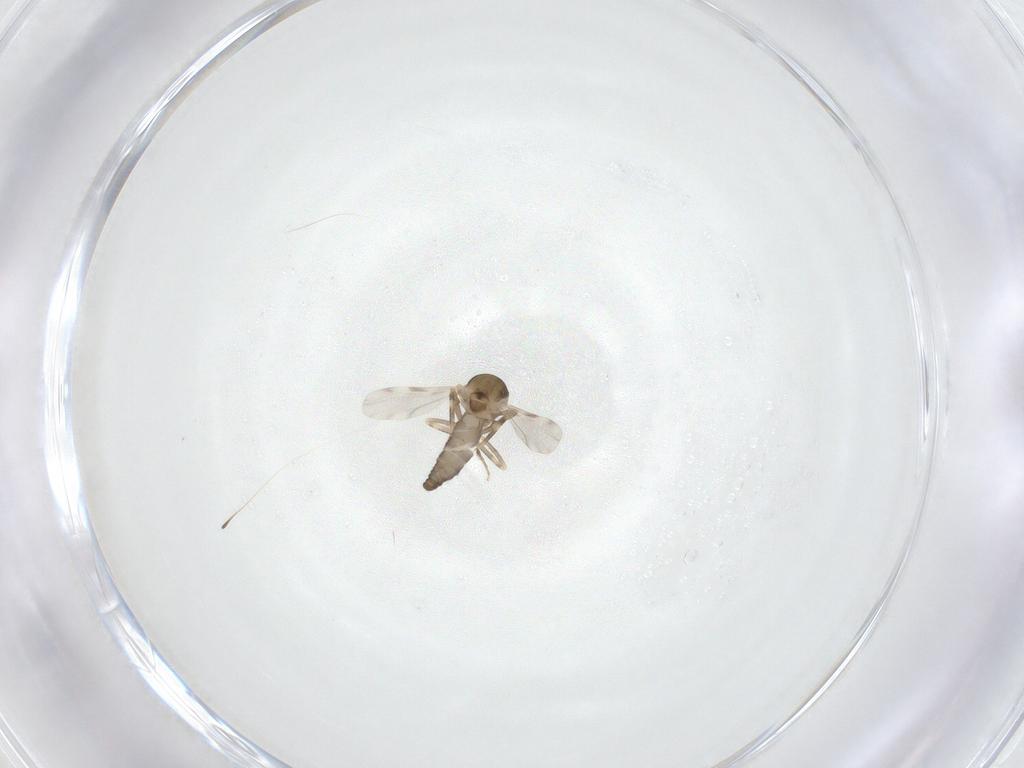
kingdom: Animalia
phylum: Arthropoda
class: Insecta
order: Diptera
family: Ceratopogonidae
